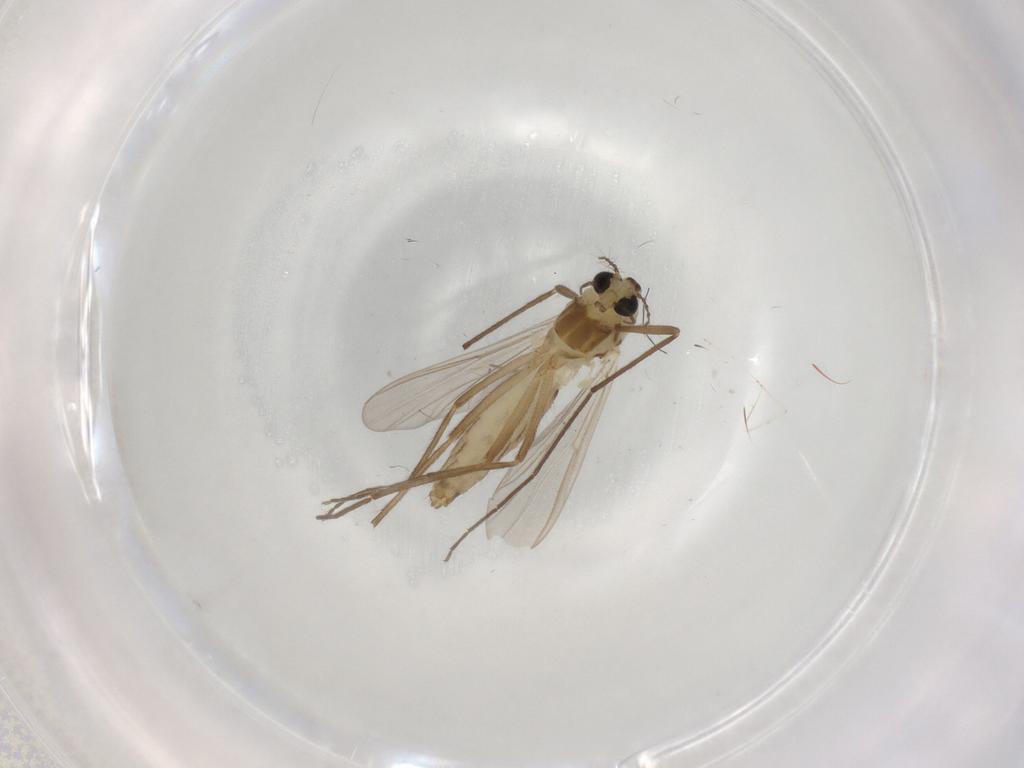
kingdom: Animalia
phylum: Arthropoda
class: Insecta
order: Diptera
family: Chironomidae
